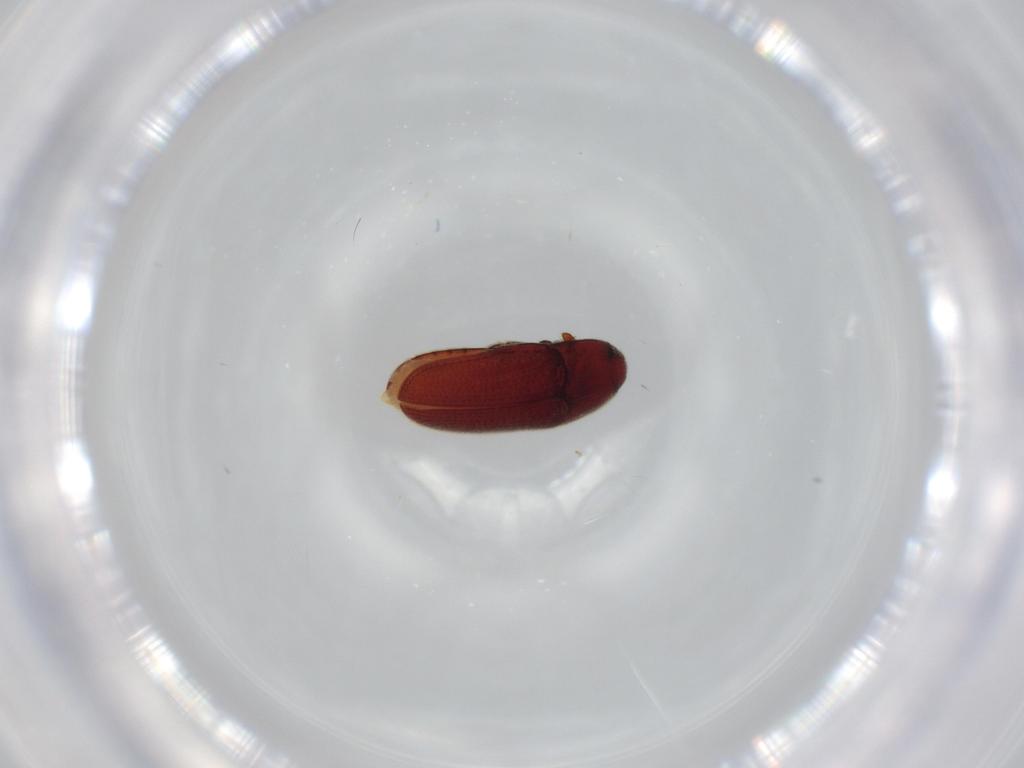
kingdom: Animalia
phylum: Arthropoda
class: Insecta
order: Coleoptera
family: Throscidae
